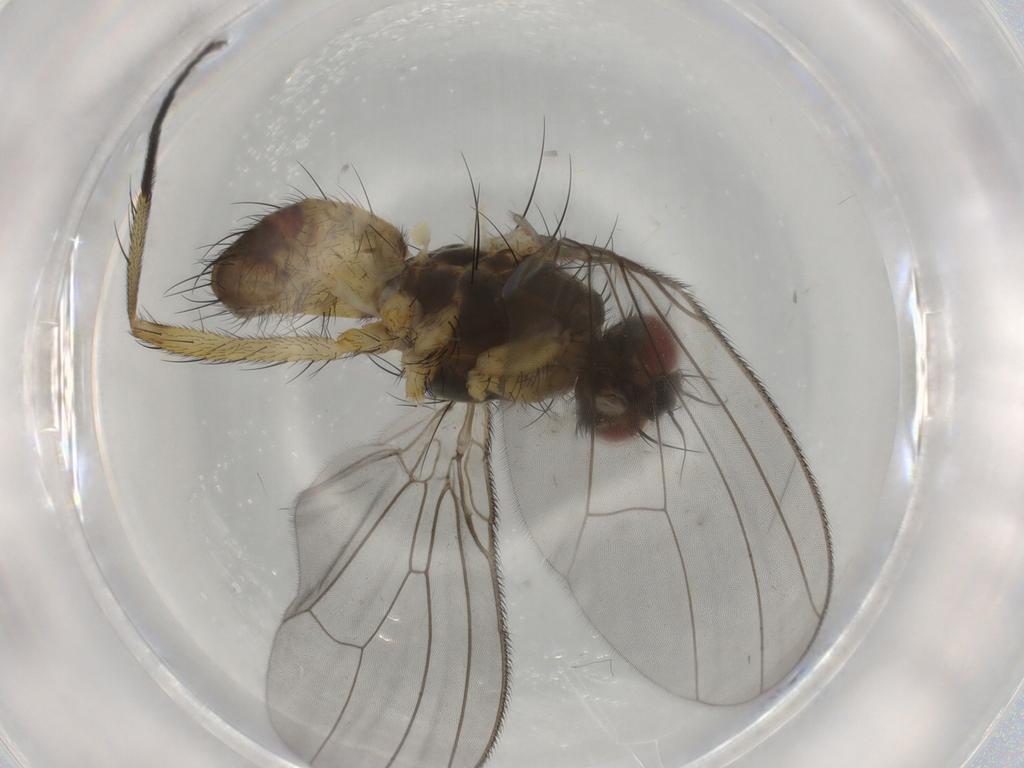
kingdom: Animalia
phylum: Arthropoda
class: Insecta
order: Diptera
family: Muscidae
